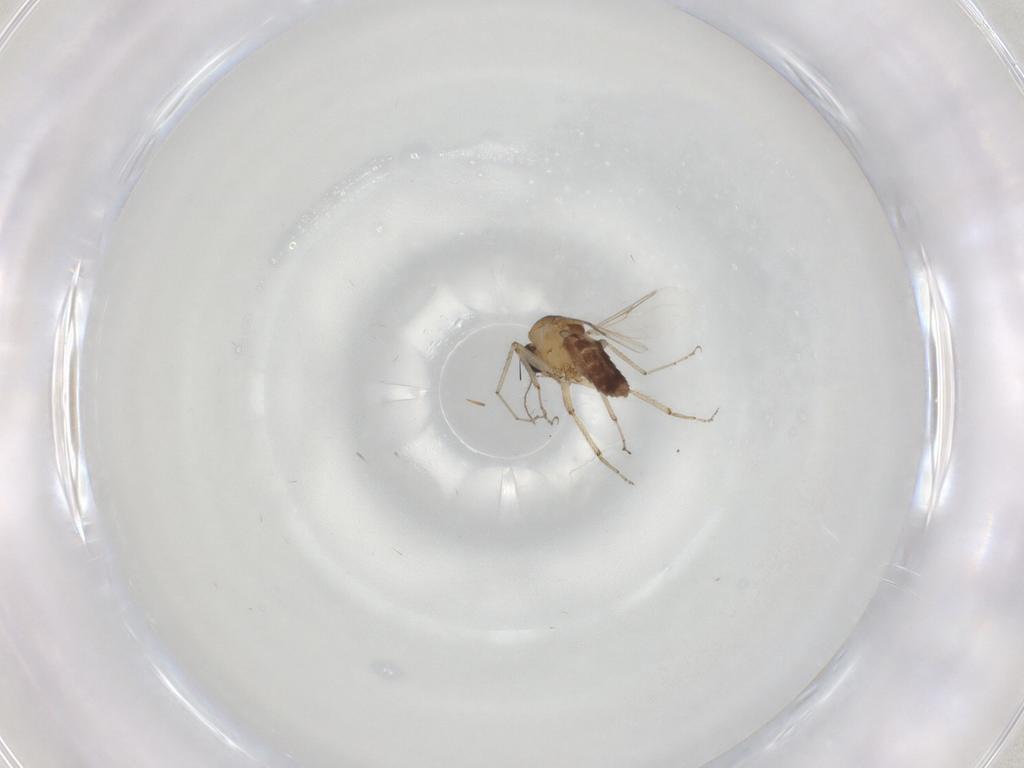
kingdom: Animalia
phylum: Arthropoda
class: Insecta
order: Diptera
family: Ceratopogonidae
